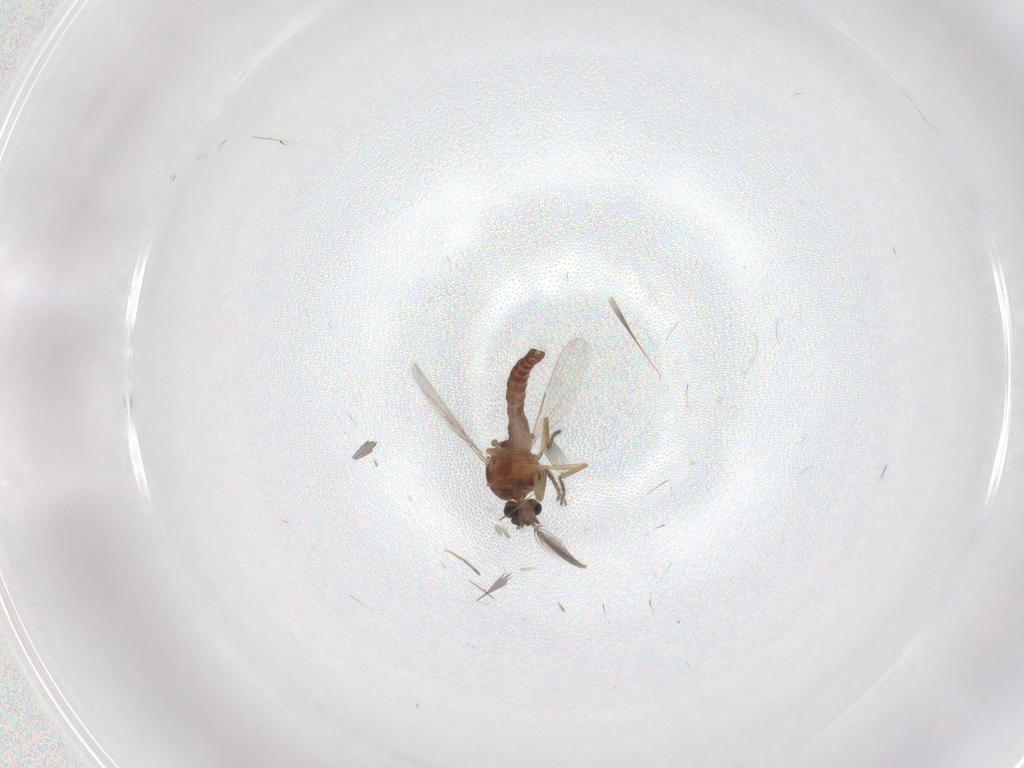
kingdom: Animalia
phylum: Arthropoda
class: Insecta
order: Diptera
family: Ceratopogonidae
